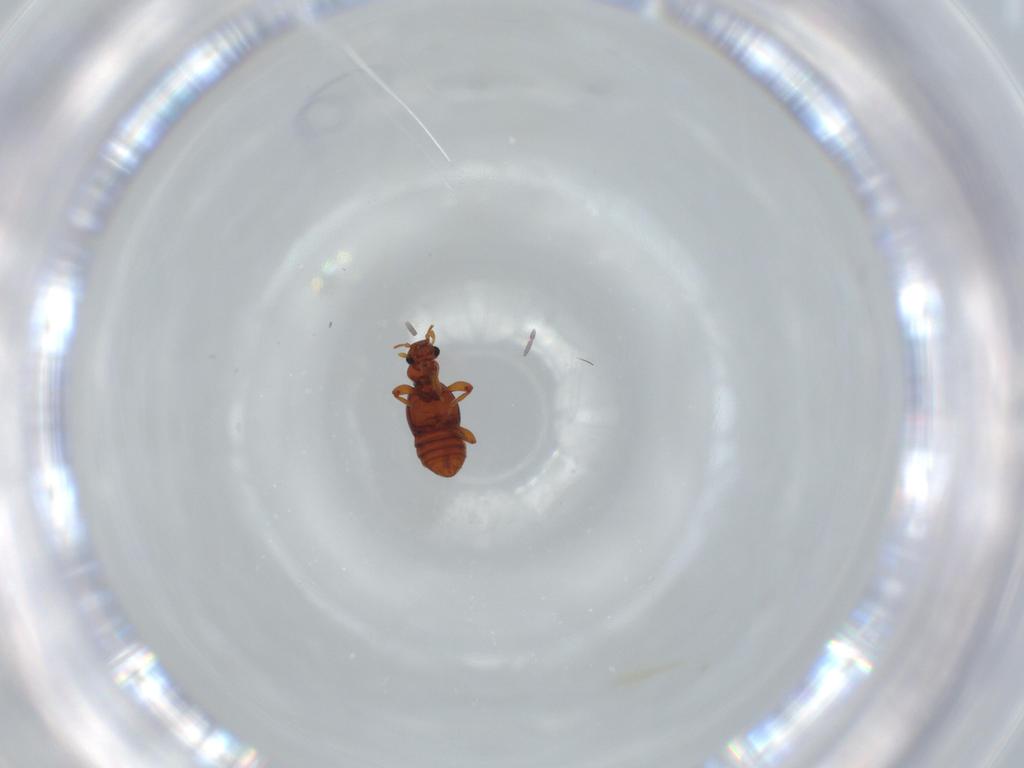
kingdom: Animalia
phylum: Arthropoda
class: Insecta
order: Coleoptera
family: Staphylinidae
